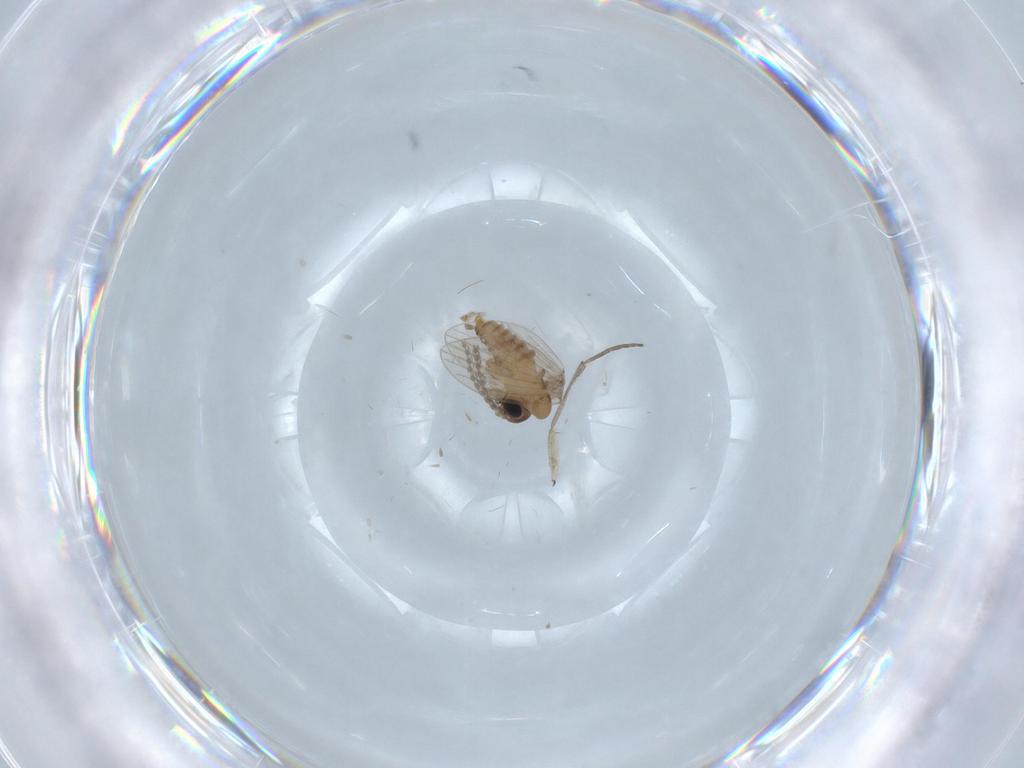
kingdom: Animalia
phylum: Arthropoda
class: Insecta
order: Diptera
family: Psychodidae
